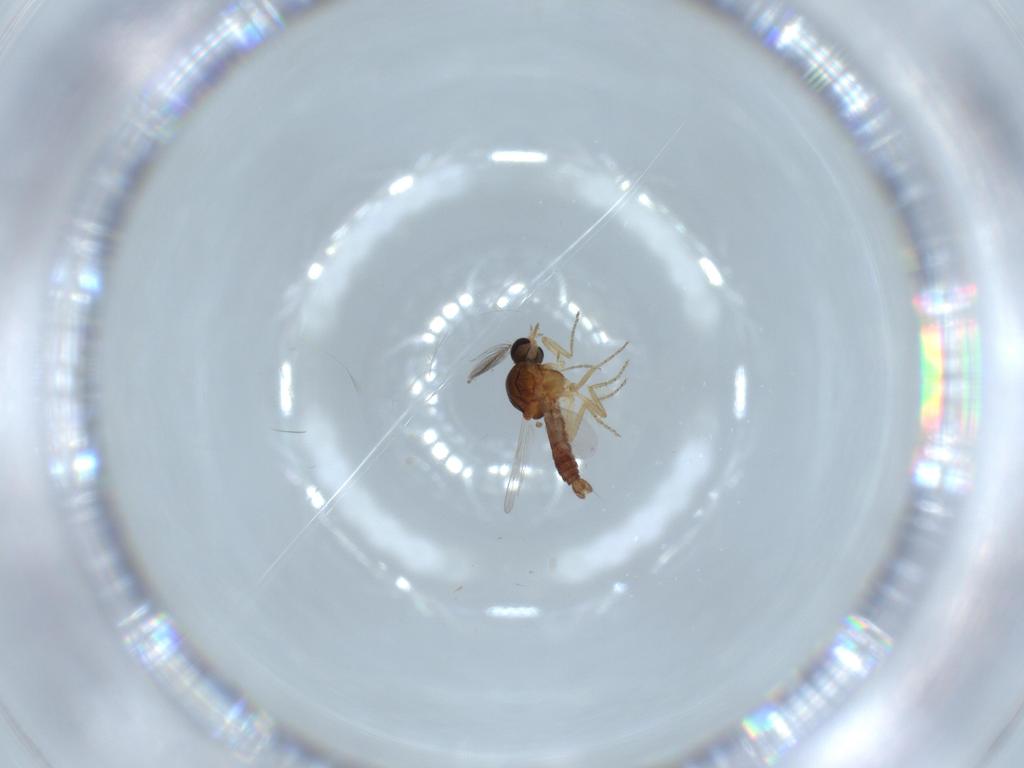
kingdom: Animalia
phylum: Arthropoda
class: Insecta
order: Diptera
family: Ceratopogonidae
